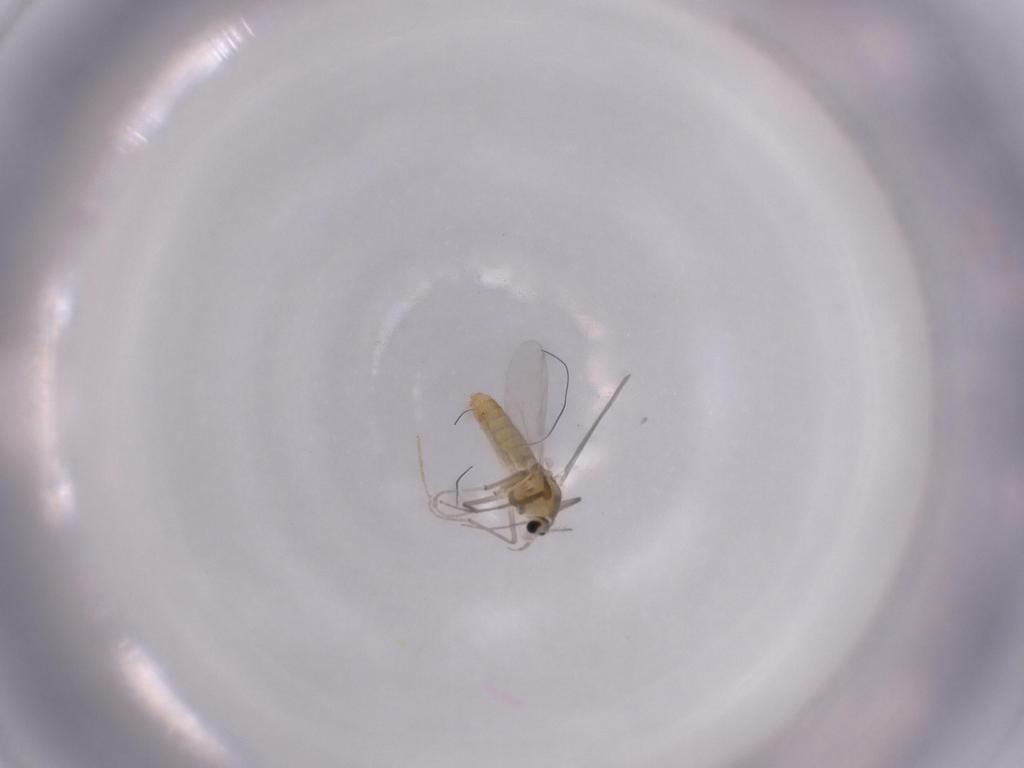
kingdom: Animalia
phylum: Arthropoda
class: Insecta
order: Diptera
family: Chironomidae
